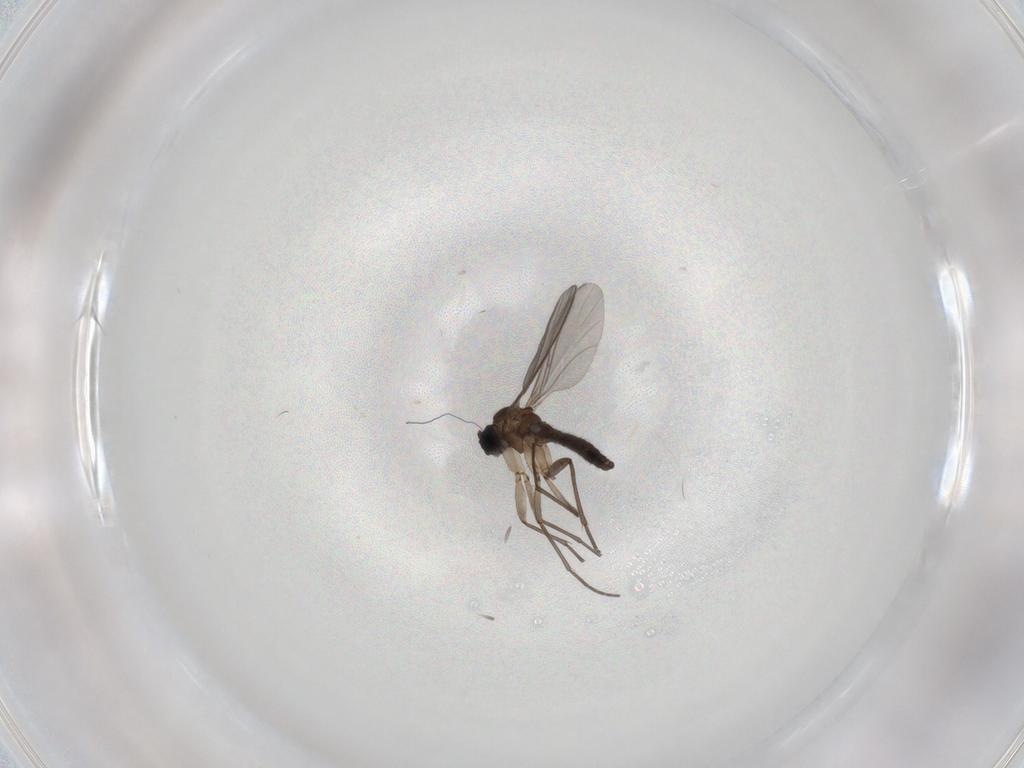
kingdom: Animalia
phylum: Arthropoda
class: Insecta
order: Diptera
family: Sciaridae
